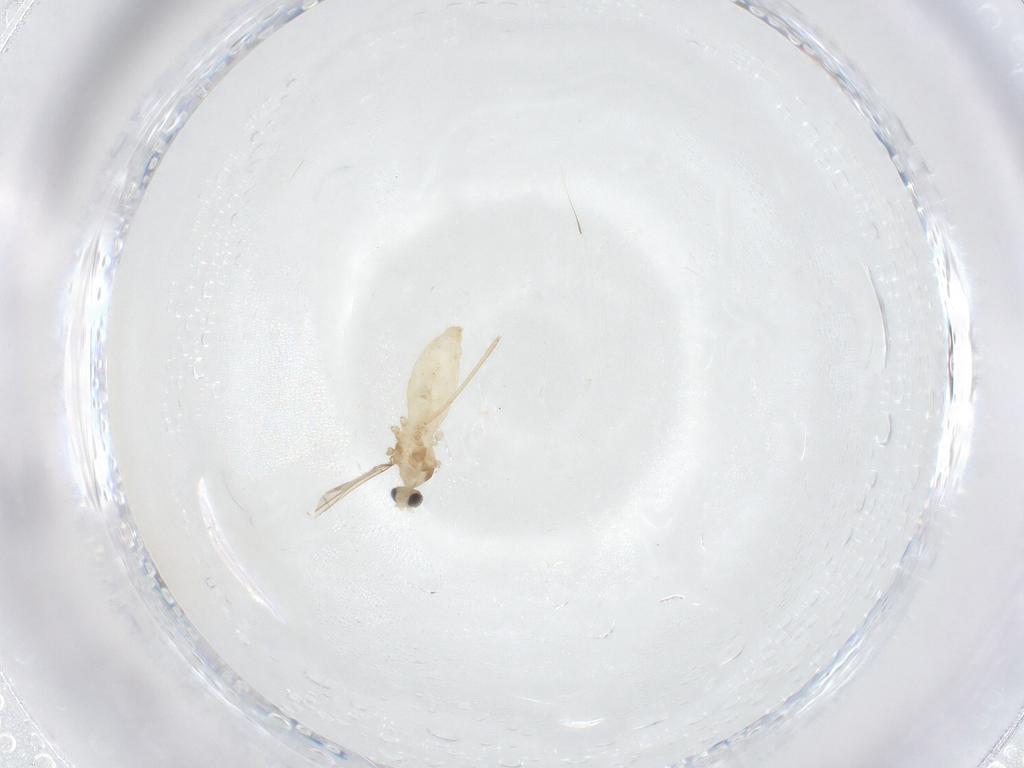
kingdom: Animalia
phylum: Arthropoda
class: Insecta
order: Diptera
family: Cecidomyiidae
